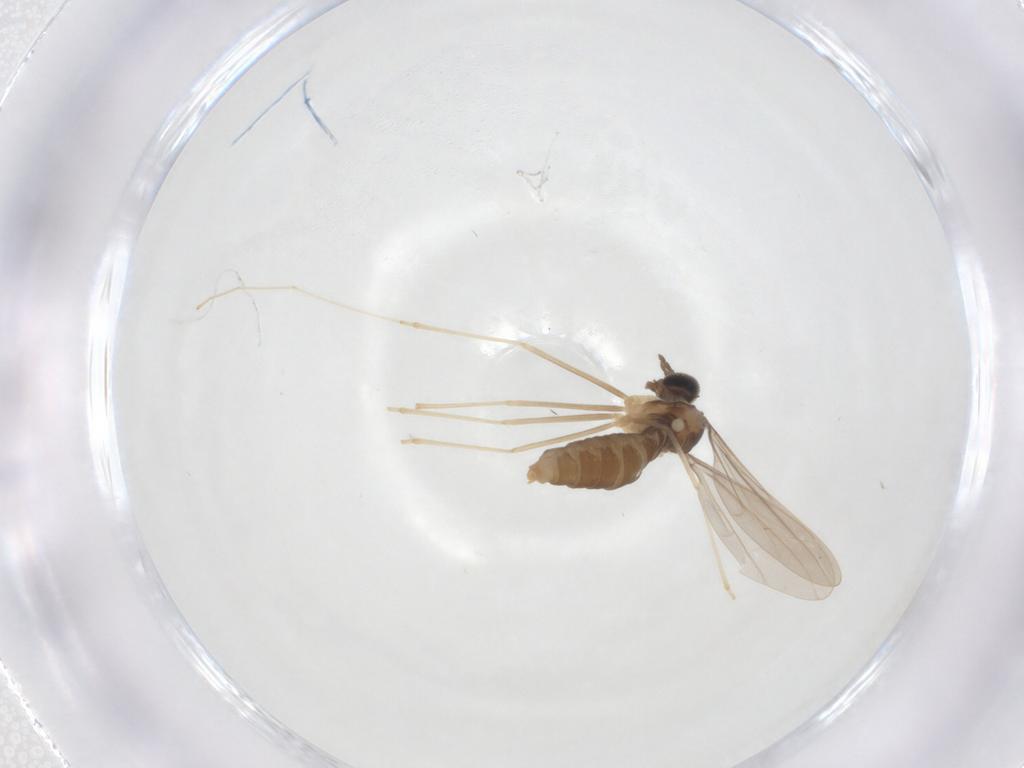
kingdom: Animalia
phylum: Arthropoda
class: Insecta
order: Diptera
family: Cecidomyiidae
